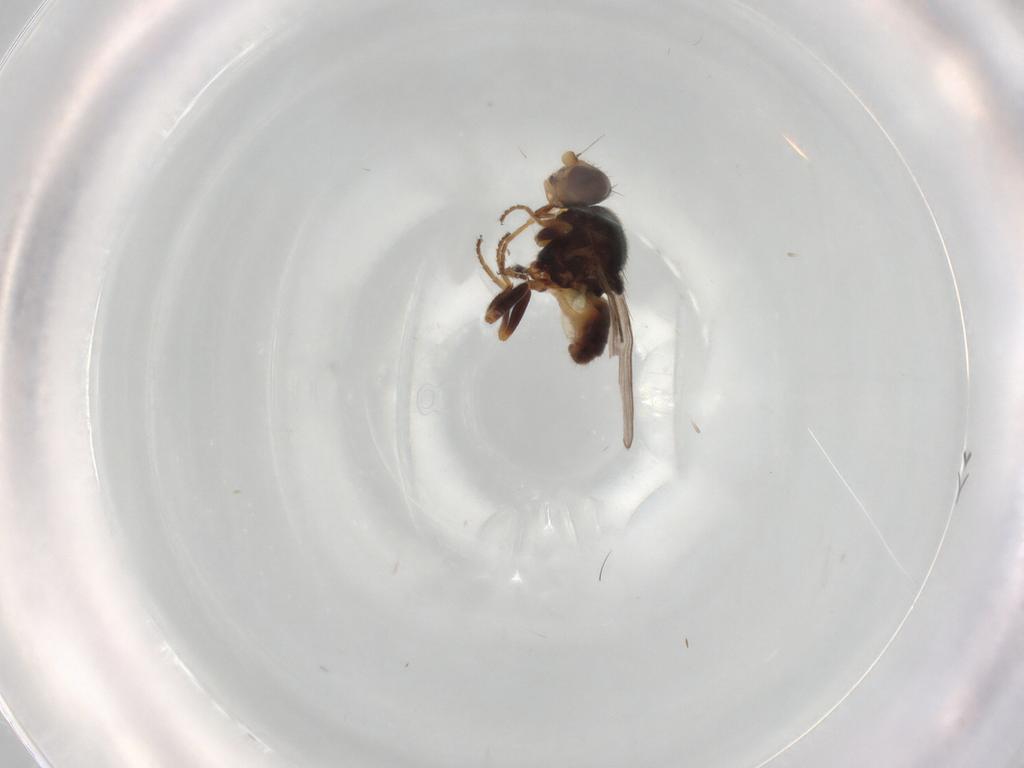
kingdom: Animalia
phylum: Arthropoda
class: Insecta
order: Diptera
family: Chloropidae
